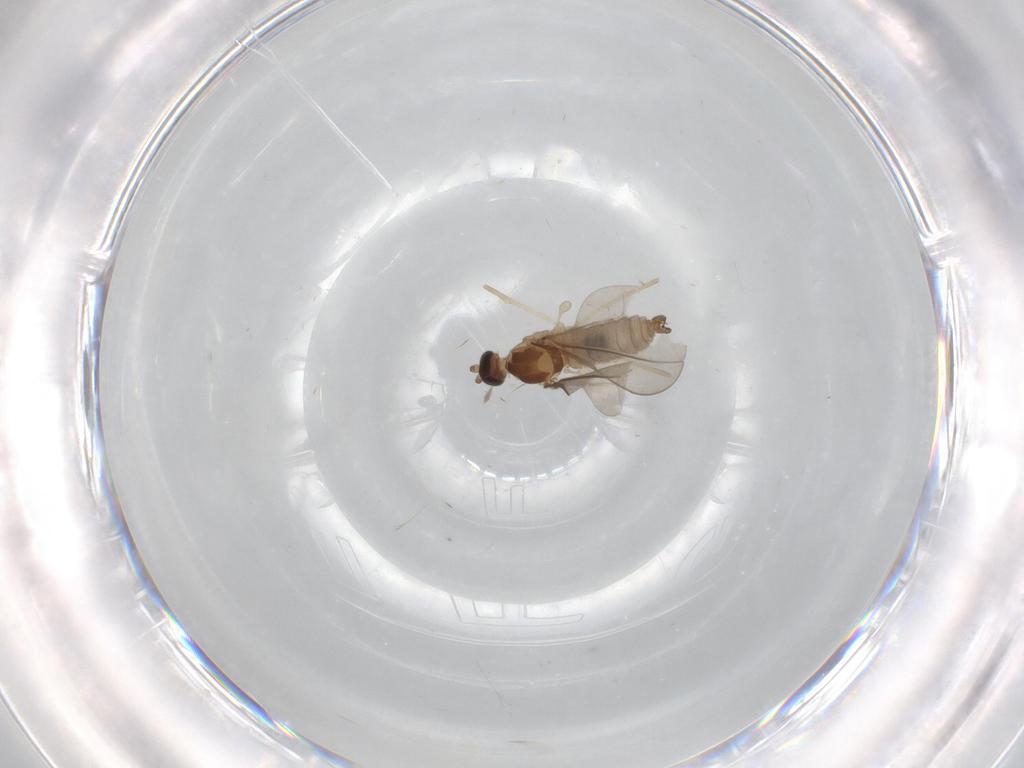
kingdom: Animalia
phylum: Arthropoda
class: Insecta
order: Diptera
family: Cecidomyiidae
